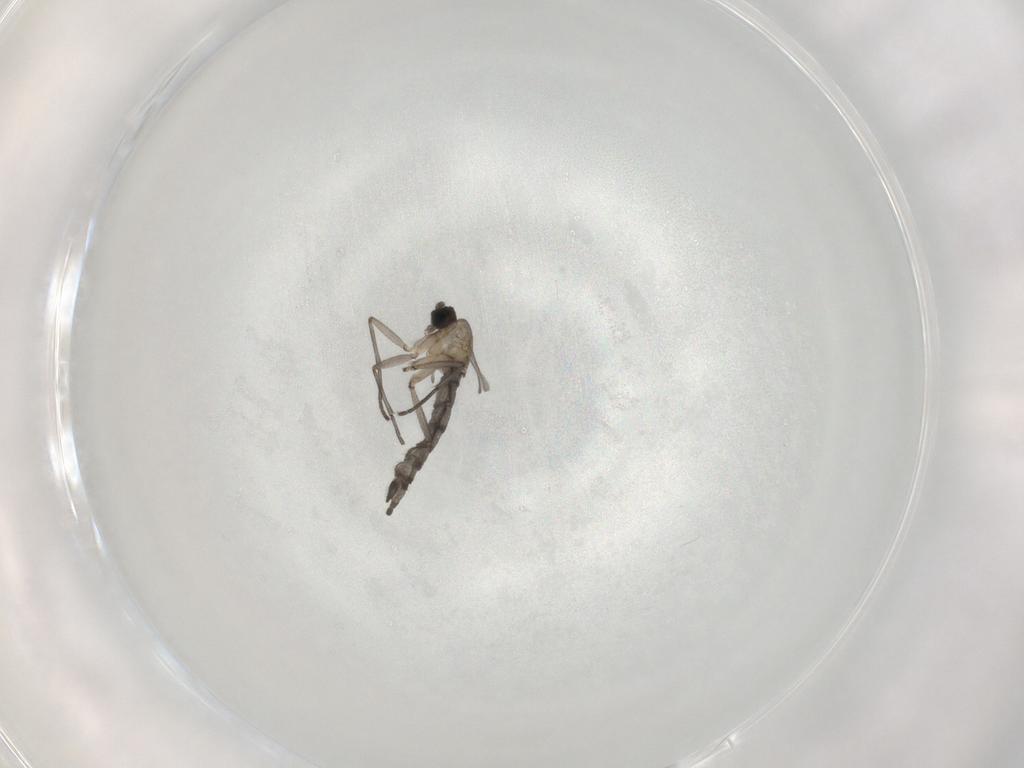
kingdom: Animalia
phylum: Arthropoda
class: Insecta
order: Diptera
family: Sciaridae
